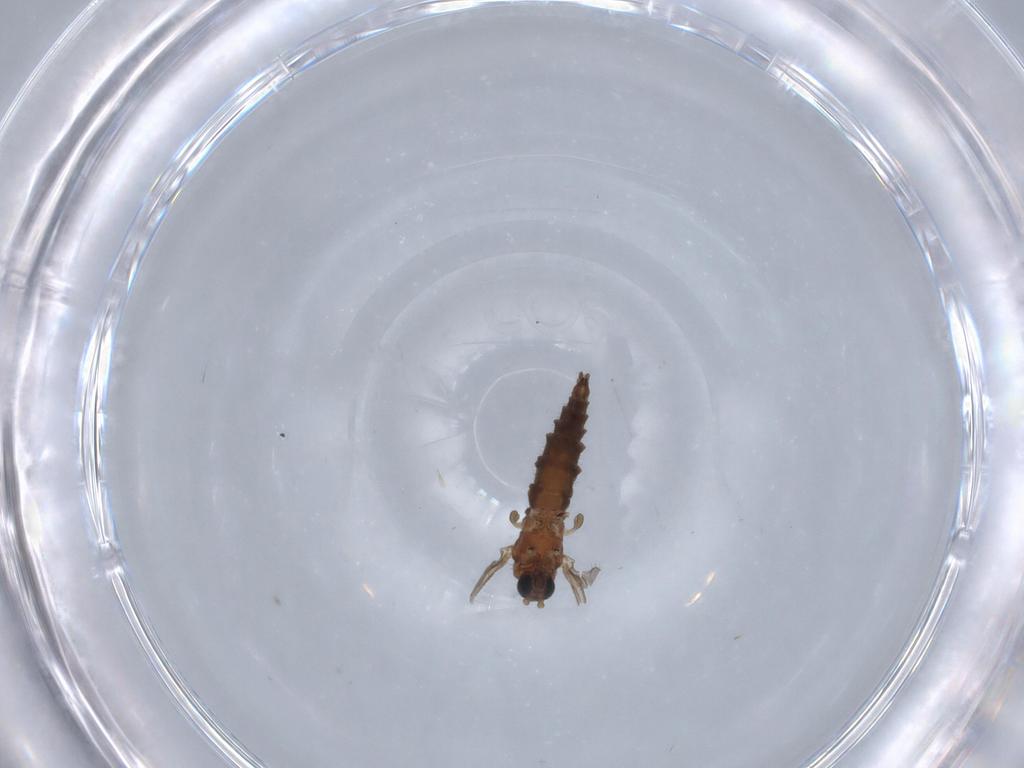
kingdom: Animalia
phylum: Arthropoda
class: Insecta
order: Diptera
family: Sciaridae
